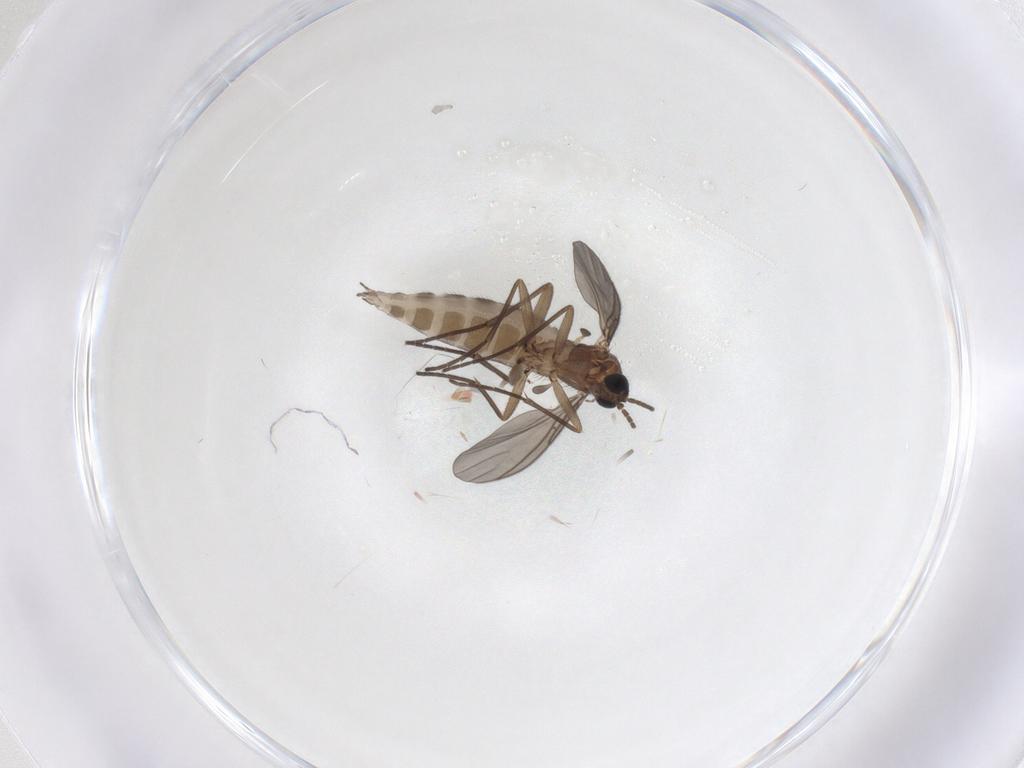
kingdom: Animalia
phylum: Arthropoda
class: Insecta
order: Diptera
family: Sciaridae
